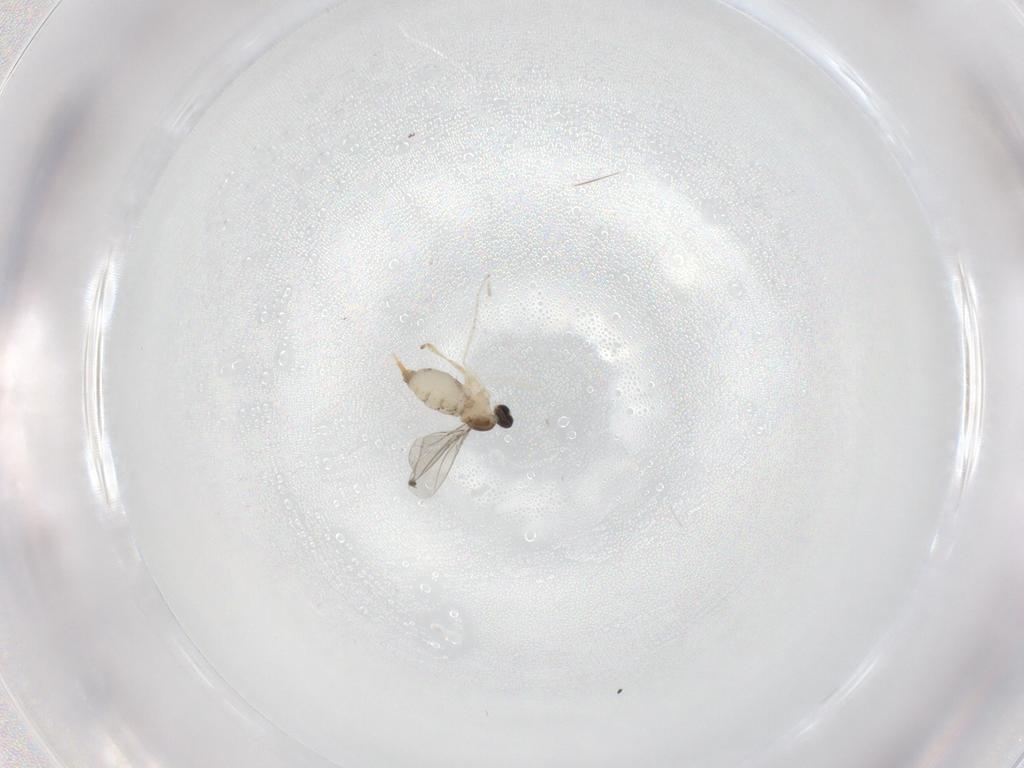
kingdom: Animalia
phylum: Arthropoda
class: Insecta
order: Diptera
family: Cecidomyiidae
